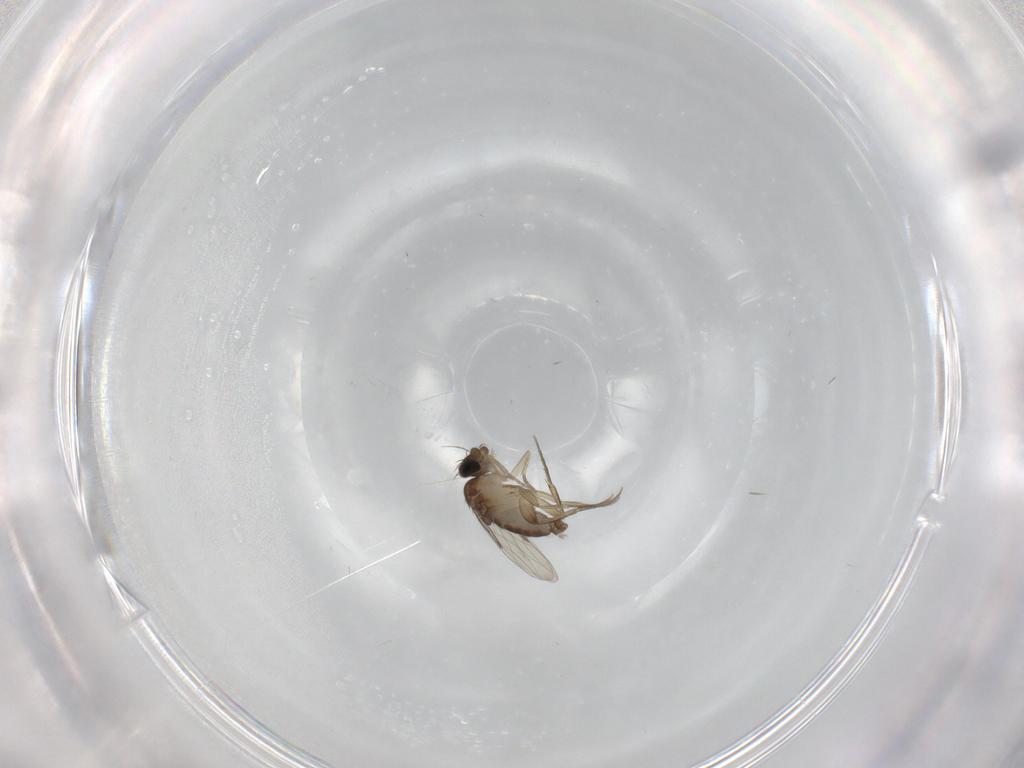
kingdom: Animalia
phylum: Arthropoda
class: Insecta
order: Diptera
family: Phoridae
